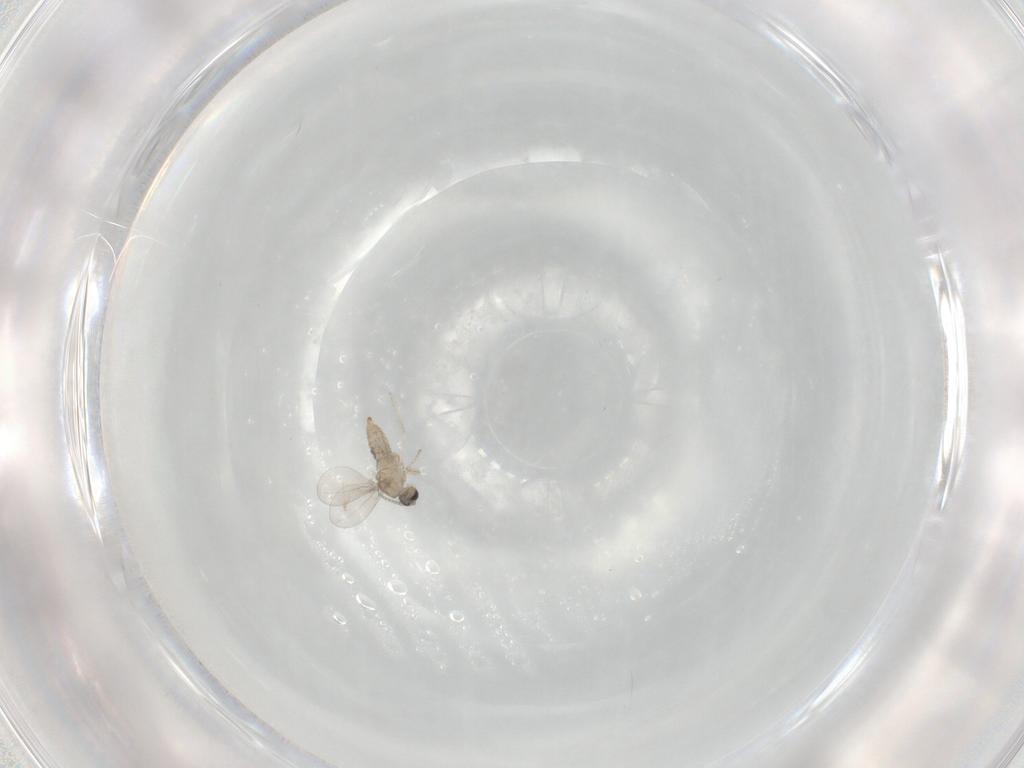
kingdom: Animalia
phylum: Arthropoda
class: Insecta
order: Diptera
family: Cecidomyiidae
